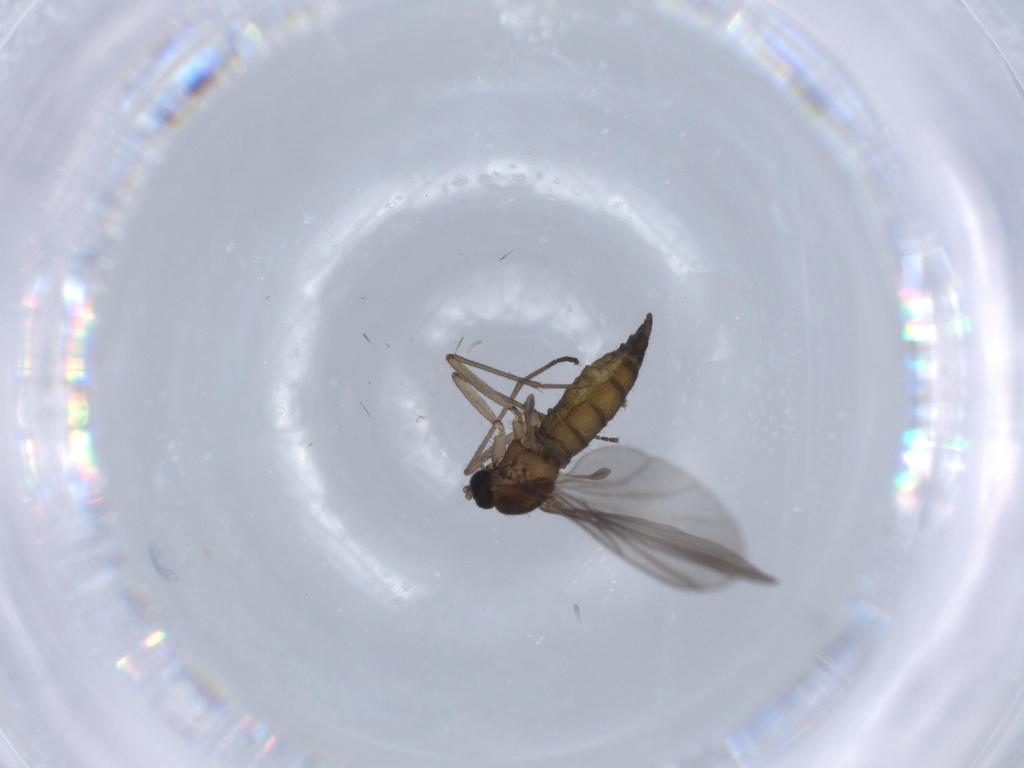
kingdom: Animalia
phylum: Arthropoda
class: Insecta
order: Diptera
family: Sciaridae
